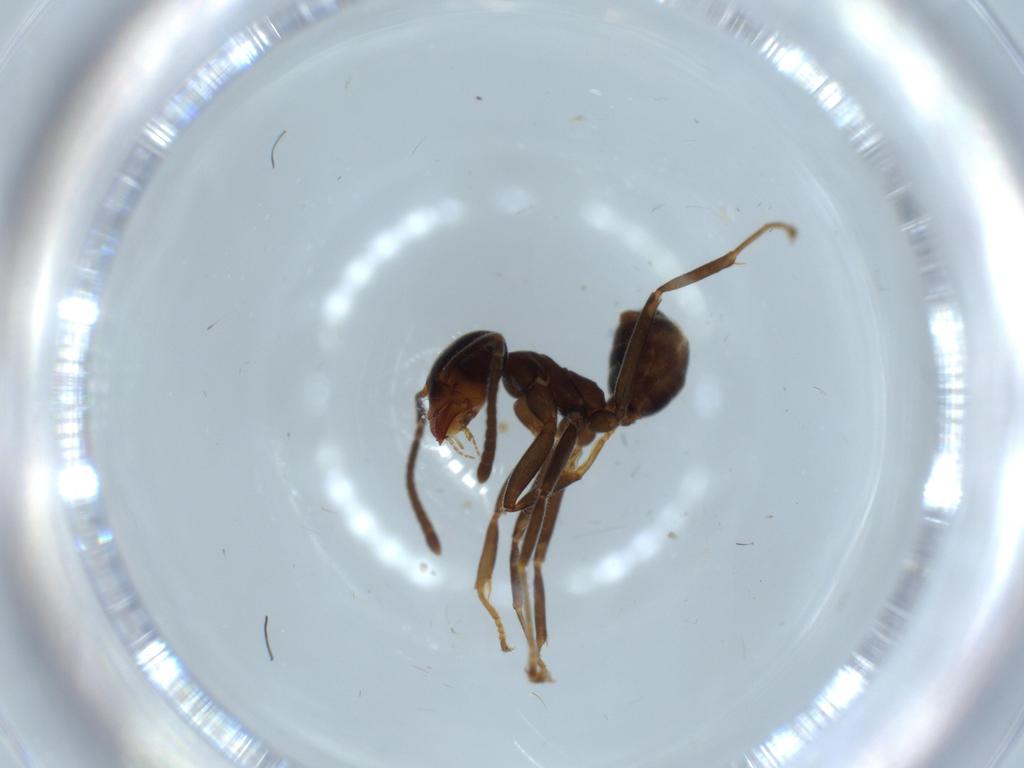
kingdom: Animalia
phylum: Arthropoda
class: Insecta
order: Hymenoptera
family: Formicidae
